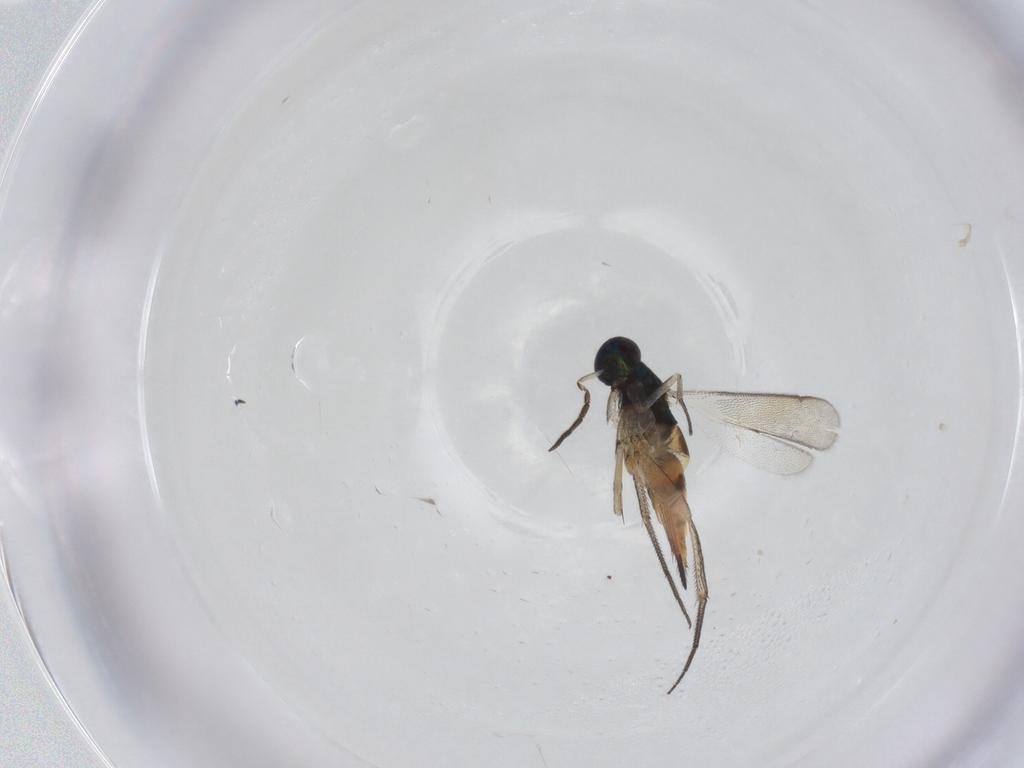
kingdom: Animalia
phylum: Arthropoda
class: Insecta
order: Hymenoptera
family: Eulophidae
